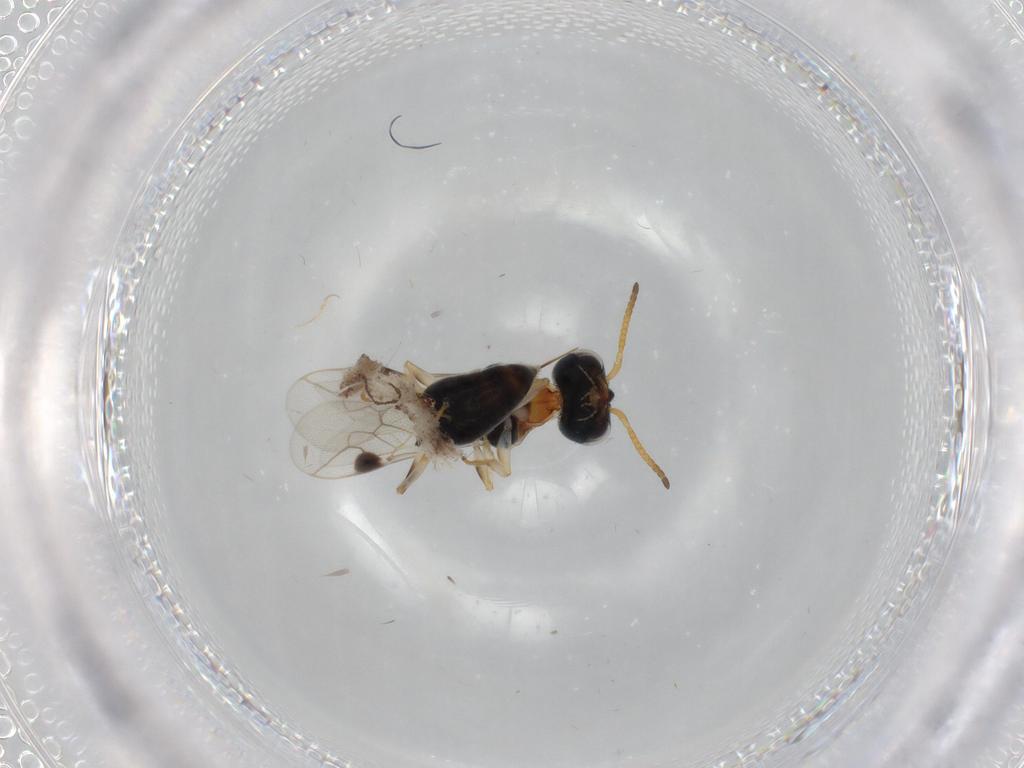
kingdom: Animalia
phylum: Arthropoda
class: Insecta
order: Hymenoptera
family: Pemphredonidae
